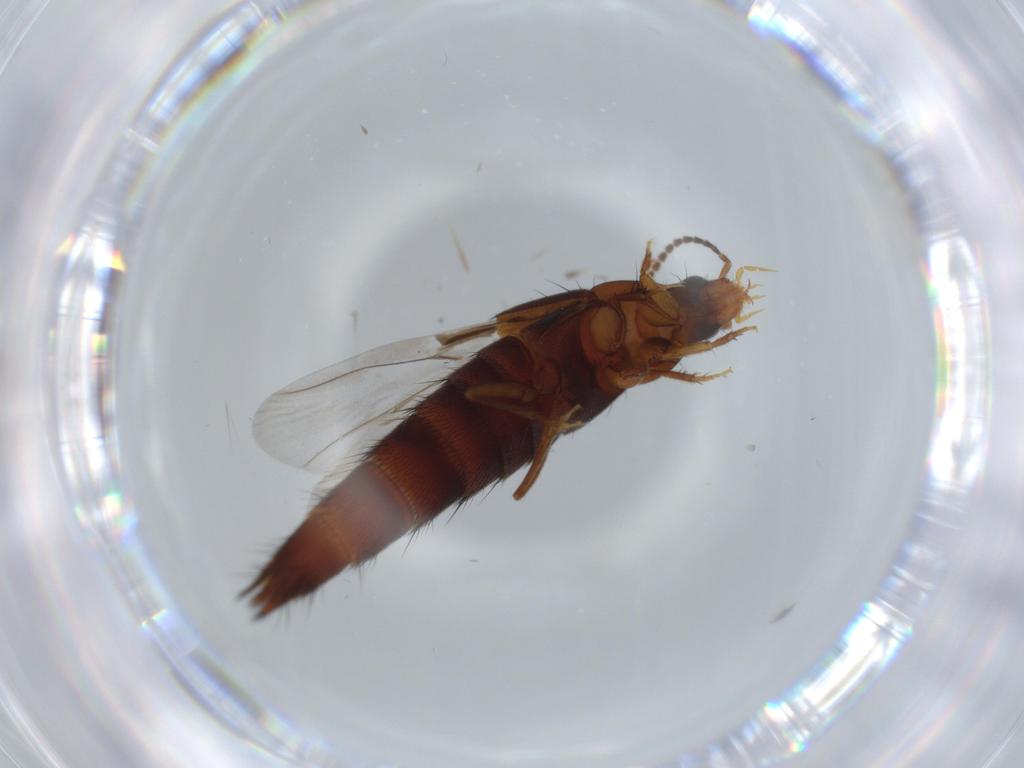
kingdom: Animalia
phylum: Arthropoda
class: Insecta
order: Coleoptera
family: Staphylinidae
